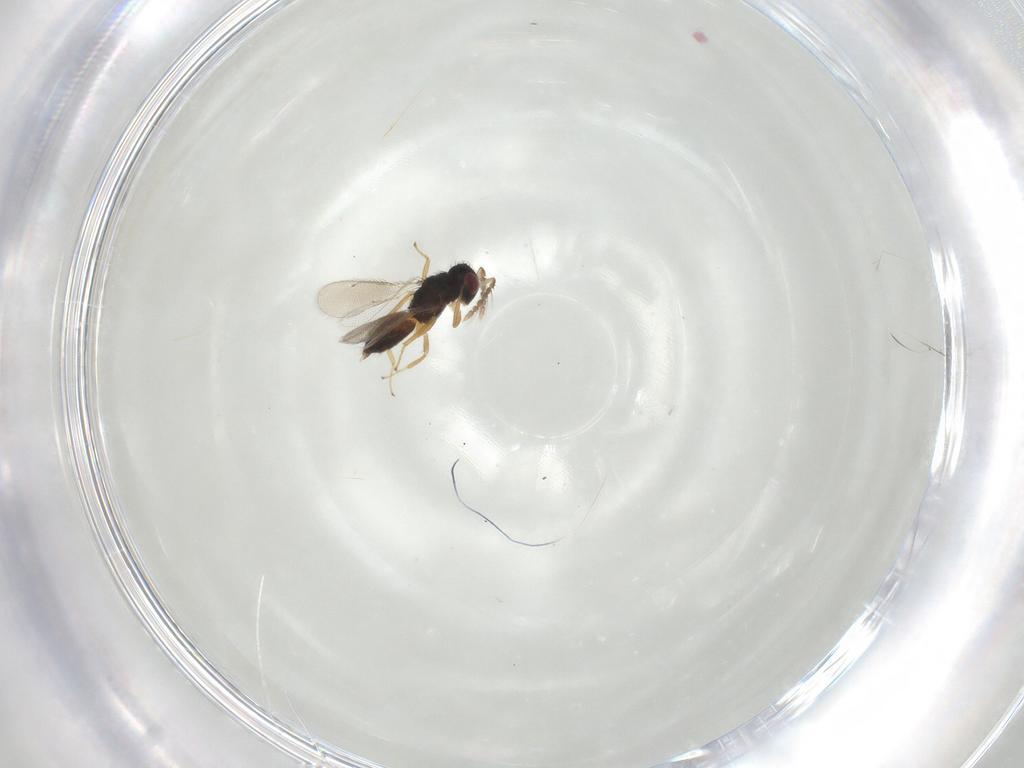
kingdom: Animalia
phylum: Arthropoda
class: Insecta
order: Hymenoptera
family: Eulophidae
